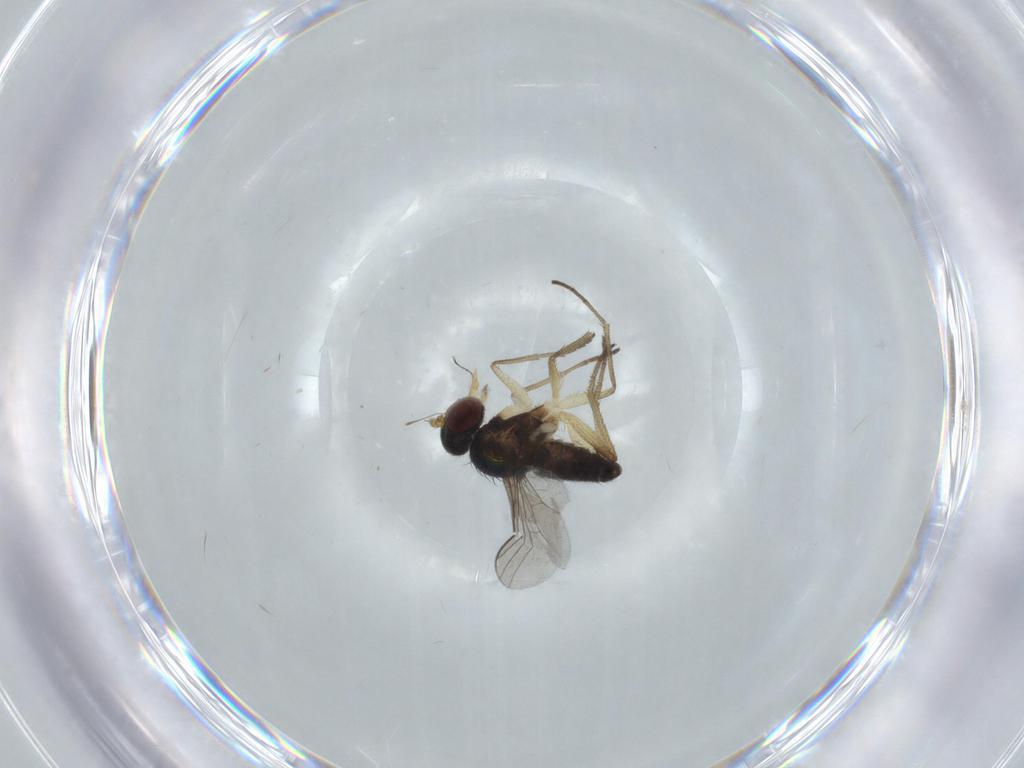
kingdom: Animalia
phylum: Arthropoda
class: Insecta
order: Diptera
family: Dolichopodidae
